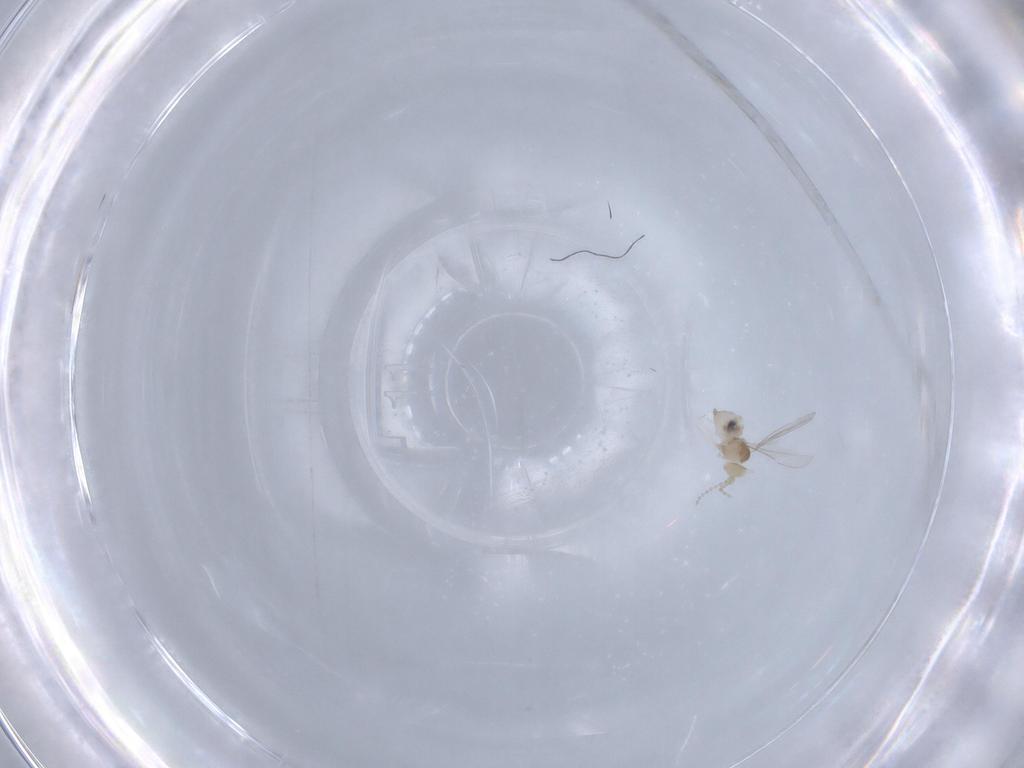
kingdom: Animalia
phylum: Arthropoda
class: Insecta
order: Diptera
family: Cecidomyiidae
